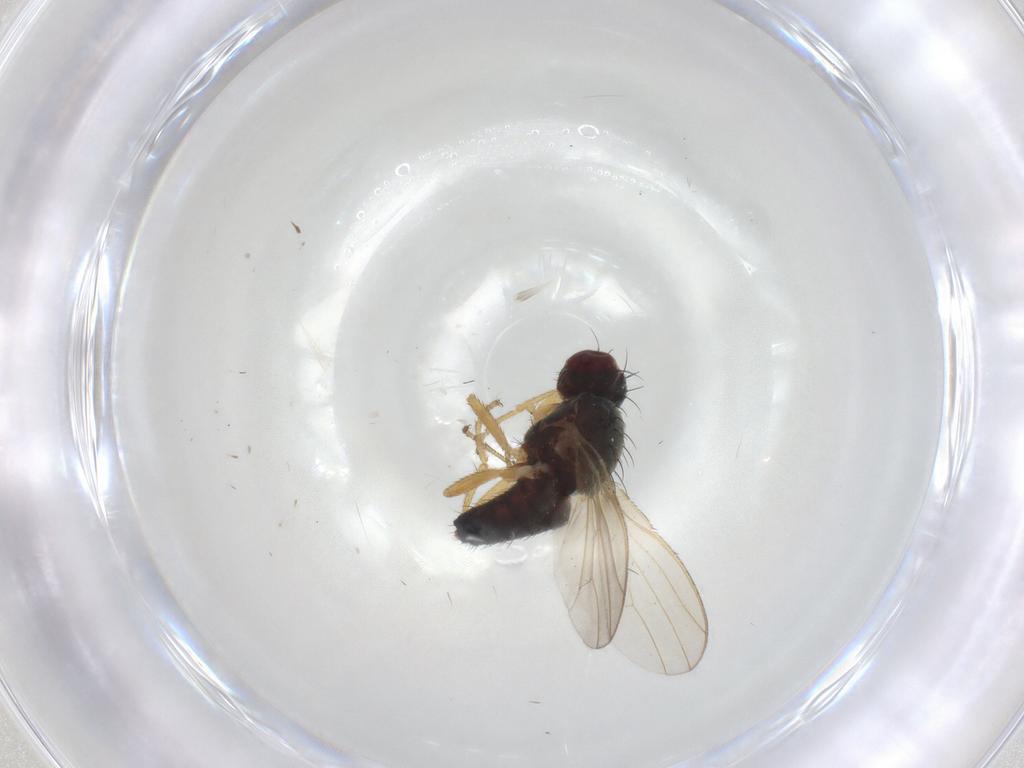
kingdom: Animalia
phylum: Arthropoda
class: Insecta
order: Diptera
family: Heleomyzidae
